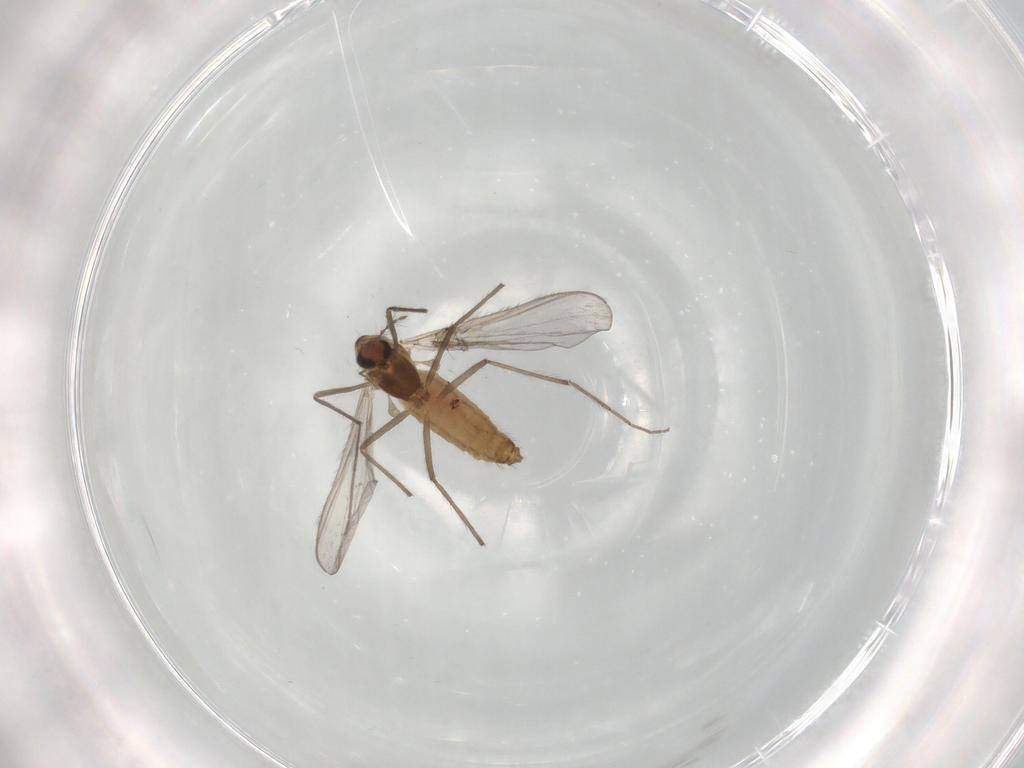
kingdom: Animalia
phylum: Arthropoda
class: Insecta
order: Diptera
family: Chironomidae
